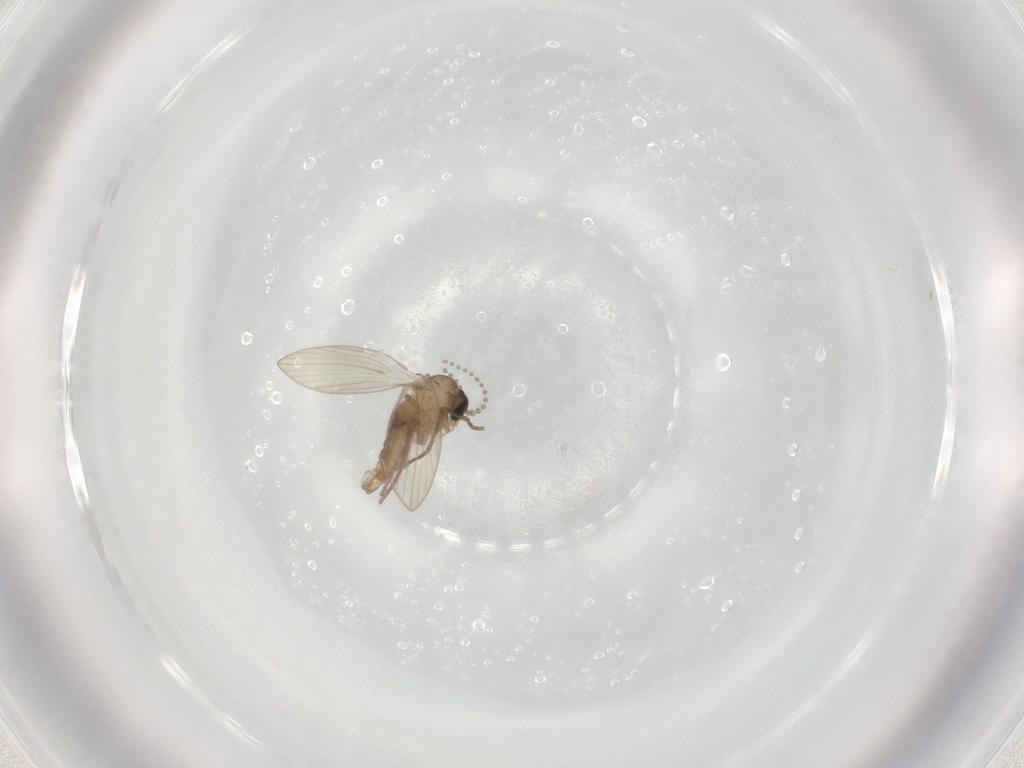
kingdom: Animalia
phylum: Arthropoda
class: Insecta
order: Diptera
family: Psychodidae
